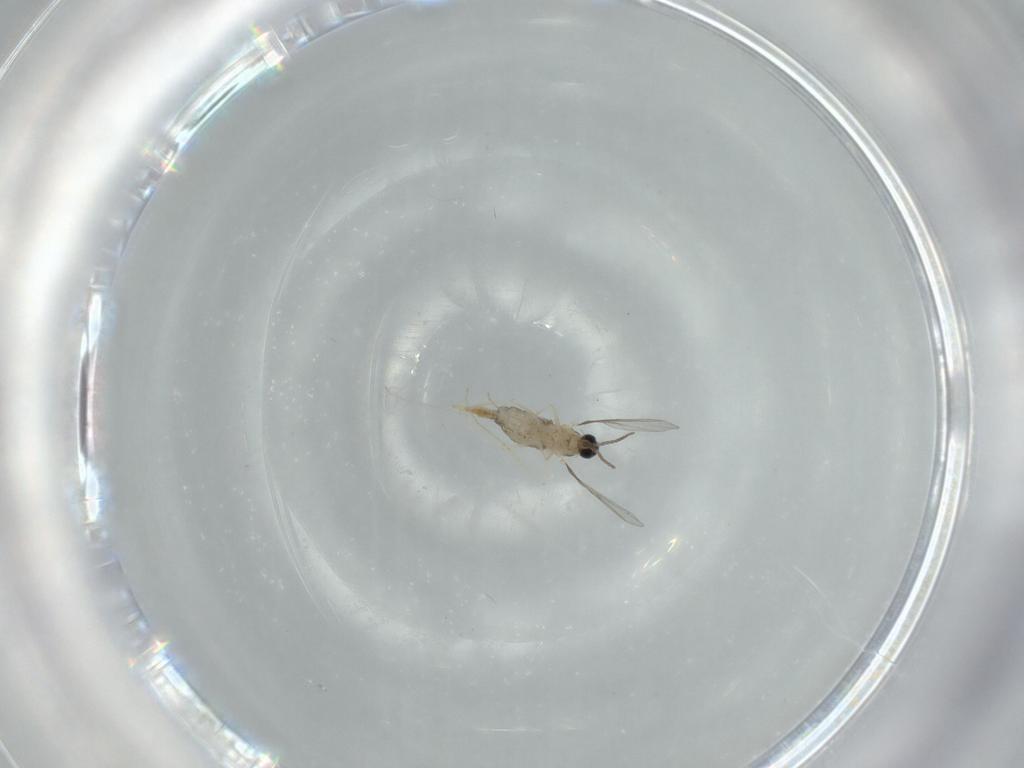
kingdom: Animalia
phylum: Arthropoda
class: Insecta
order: Diptera
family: Cecidomyiidae
